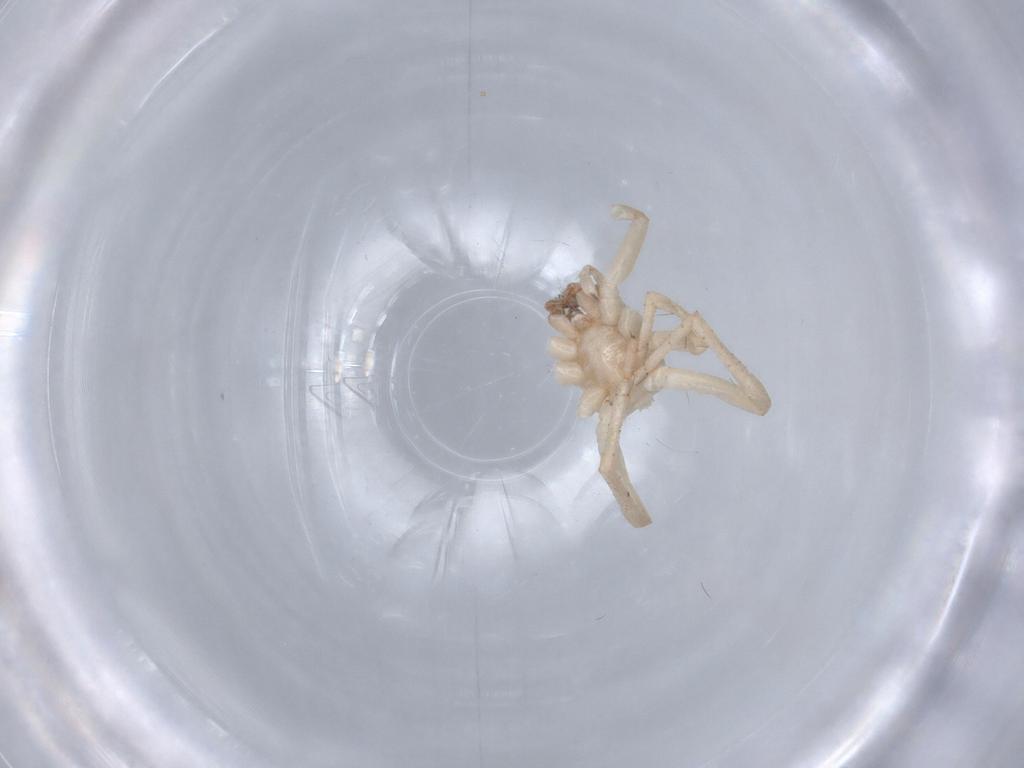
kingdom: Animalia
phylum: Arthropoda
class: Arachnida
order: Araneae
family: Clubionidae
